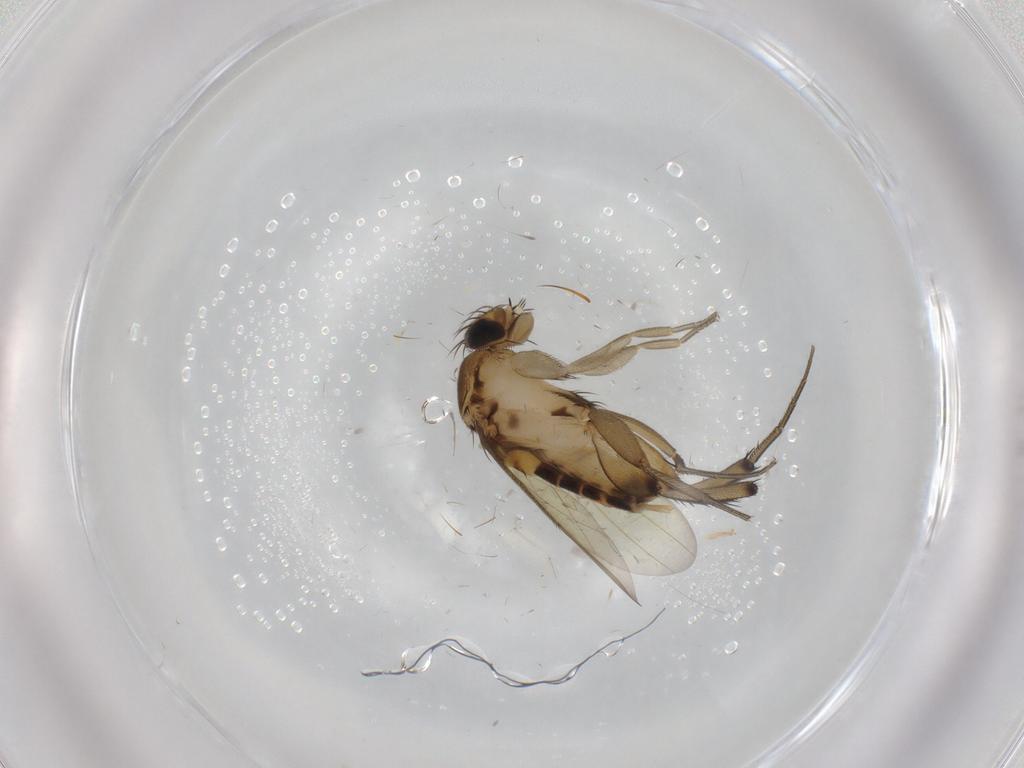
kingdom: Animalia
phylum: Arthropoda
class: Insecta
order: Diptera
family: Phoridae
